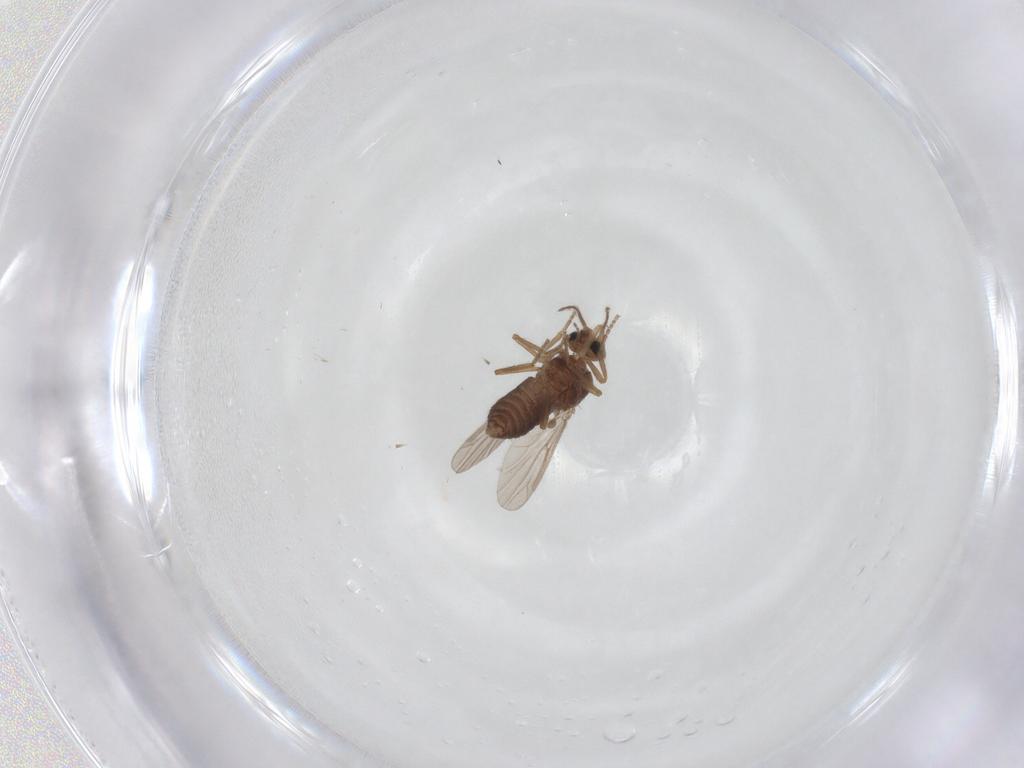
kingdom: Animalia
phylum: Arthropoda
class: Insecta
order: Diptera
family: Ceratopogonidae
